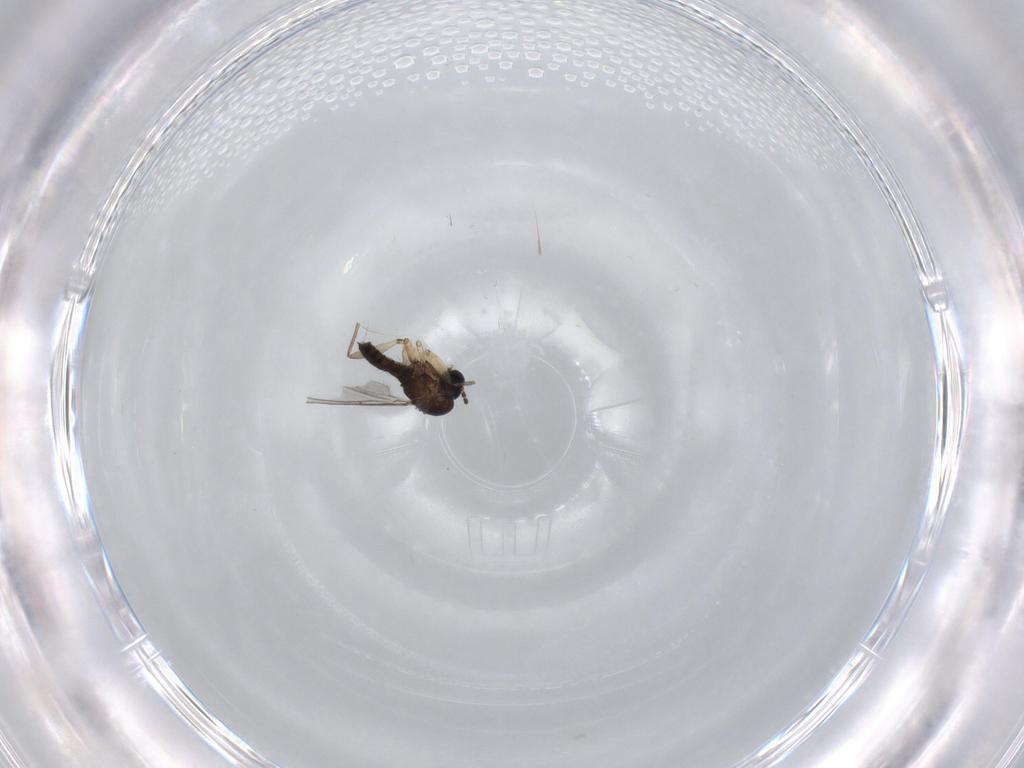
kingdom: Animalia
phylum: Arthropoda
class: Insecta
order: Diptera
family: Sciaridae
